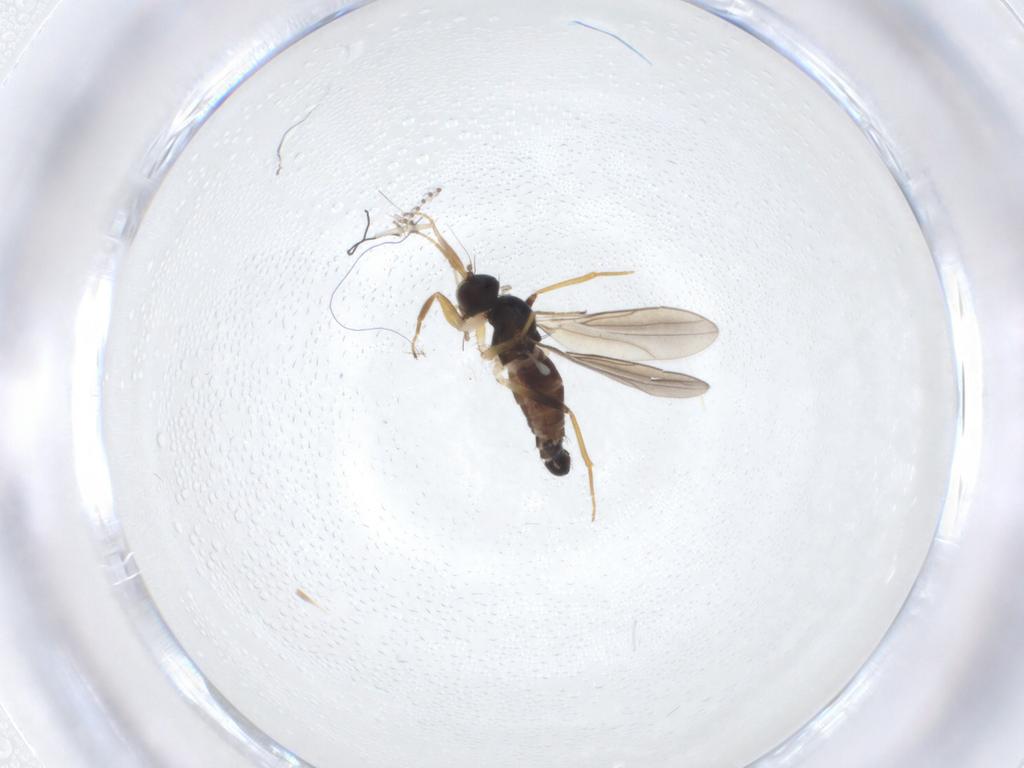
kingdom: Animalia
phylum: Arthropoda
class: Insecta
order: Diptera
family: Hybotidae
